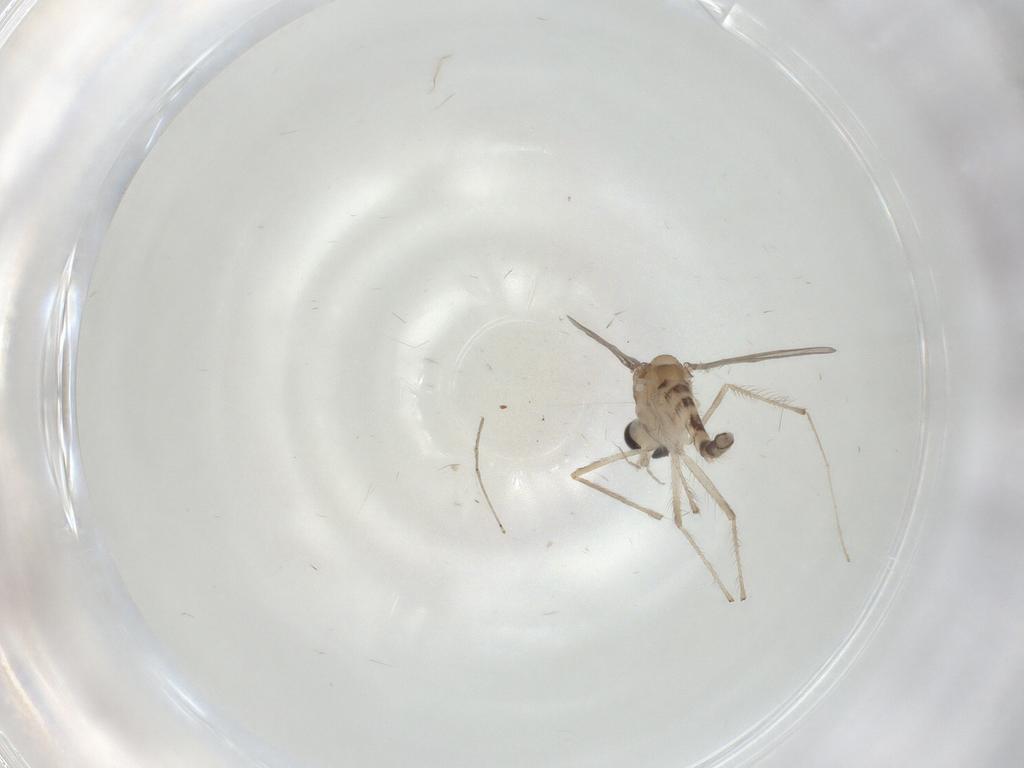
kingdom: Animalia
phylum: Arthropoda
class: Insecta
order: Diptera
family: Chironomidae
